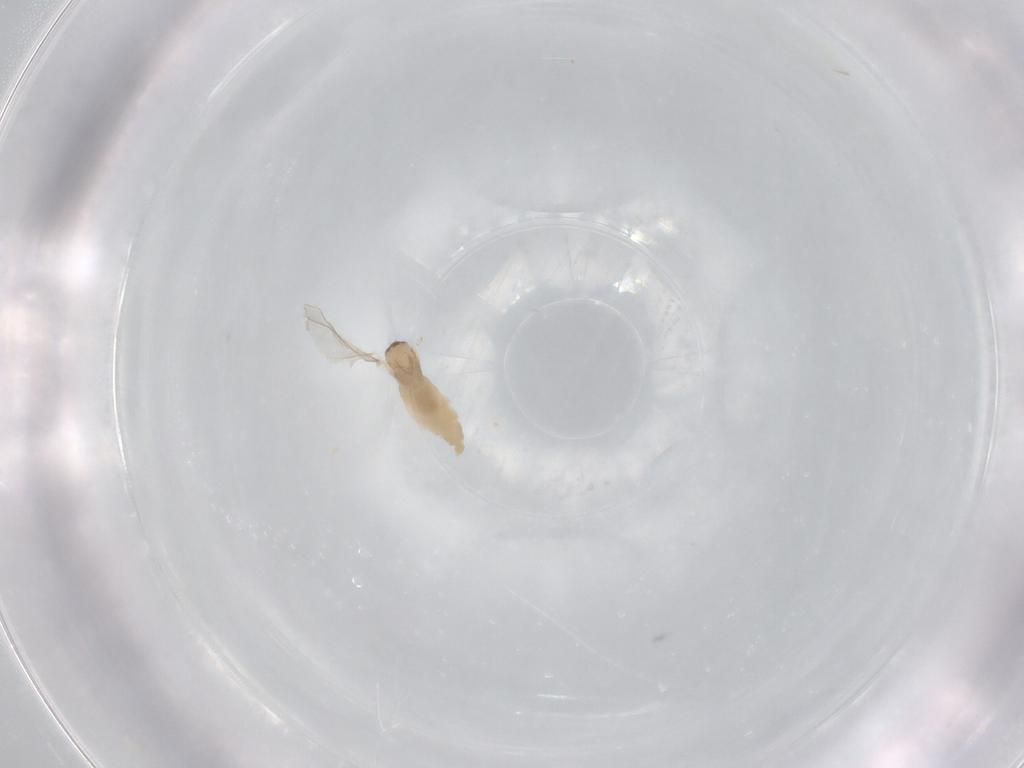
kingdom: Animalia
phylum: Arthropoda
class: Insecta
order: Diptera
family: Cecidomyiidae
